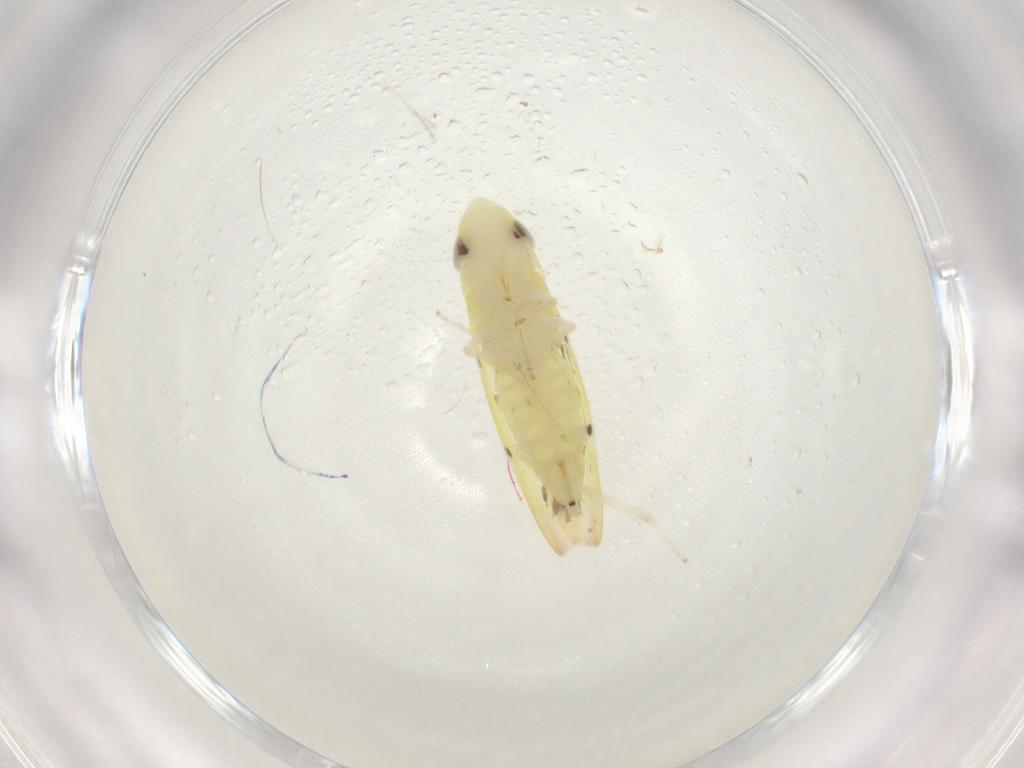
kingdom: Animalia
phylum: Arthropoda
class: Insecta
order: Hemiptera
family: Cicadellidae
